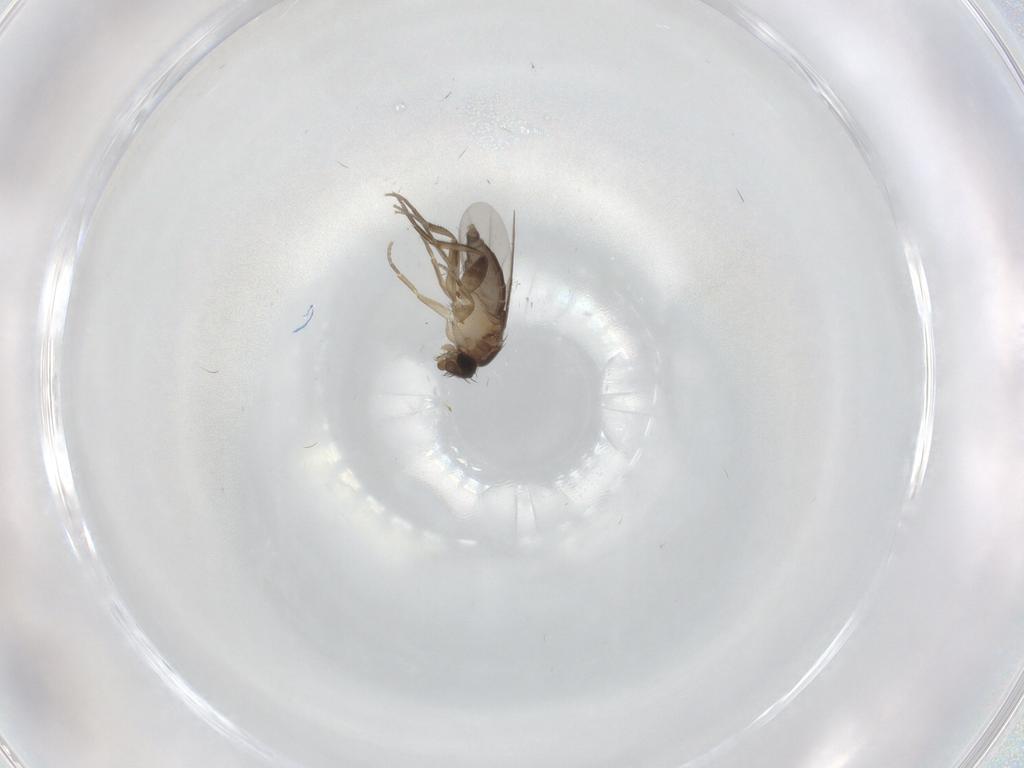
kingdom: Animalia
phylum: Arthropoda
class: Insecta
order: Diptera
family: Phoridae
